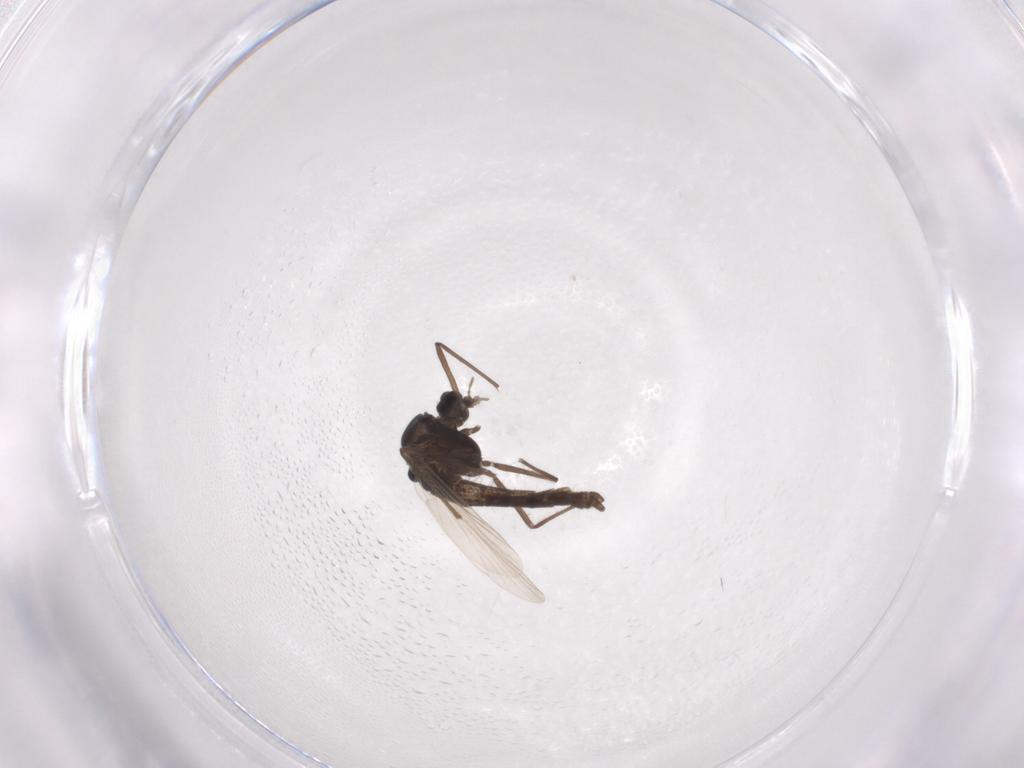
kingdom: Animalia
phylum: Arthropoda
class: Insecta
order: Diptera
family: Chironomidae
